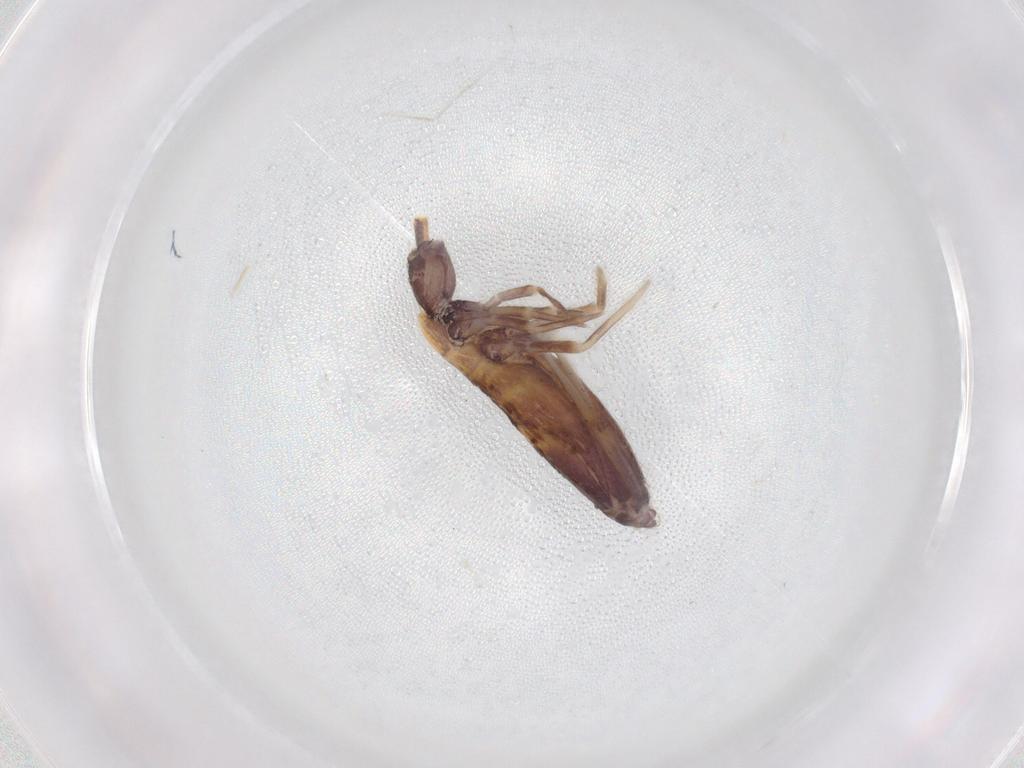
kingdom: Animalia
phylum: Arthropoda
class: Collembola
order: Entomobryomorpha
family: Entomobryidae
